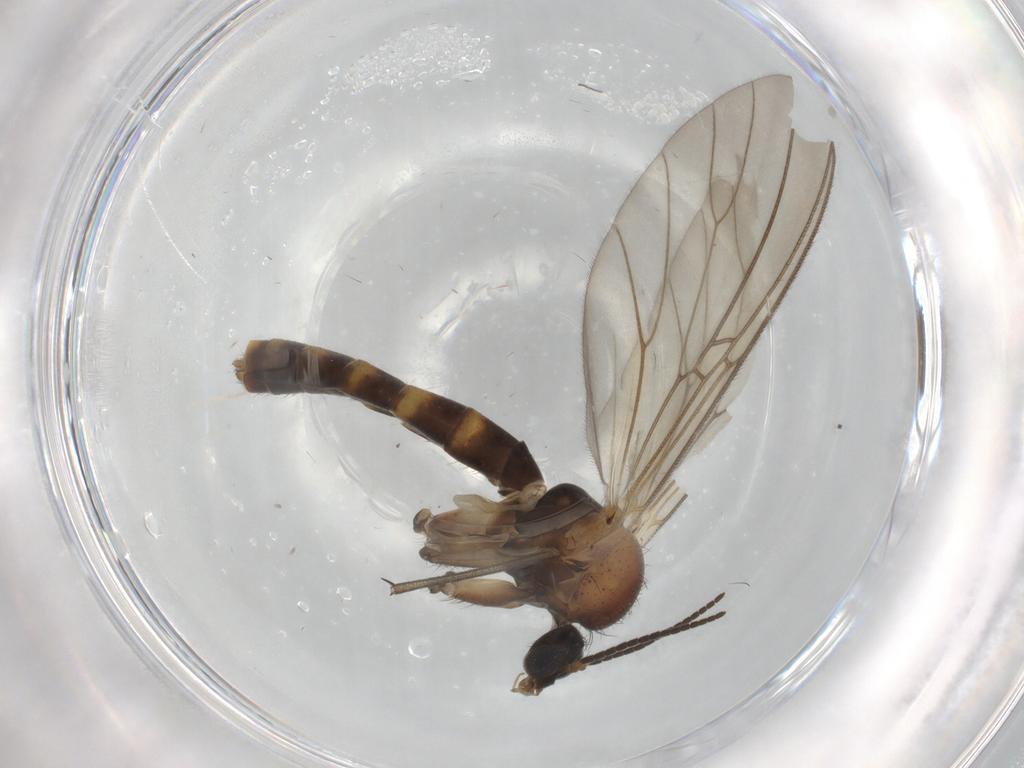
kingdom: Animalia
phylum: Arthropoda
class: Insecta
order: Diptera
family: Mycetophilidae
